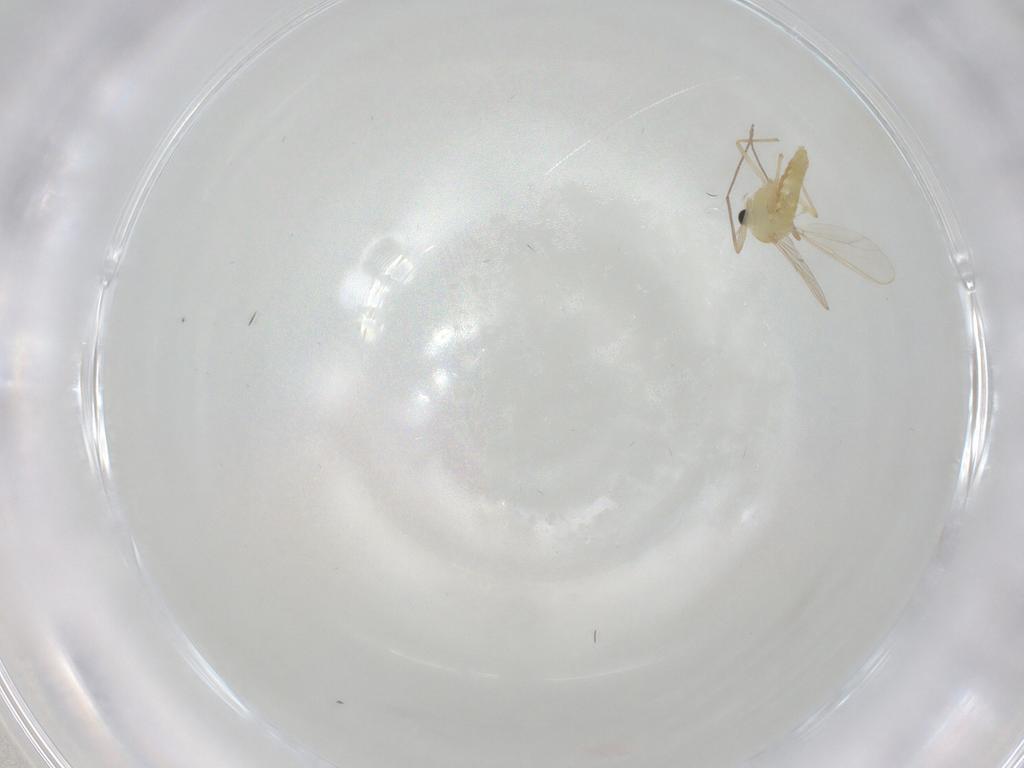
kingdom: Animalia
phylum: Arthropoda
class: Insecta
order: Diptera
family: Chironomidae
